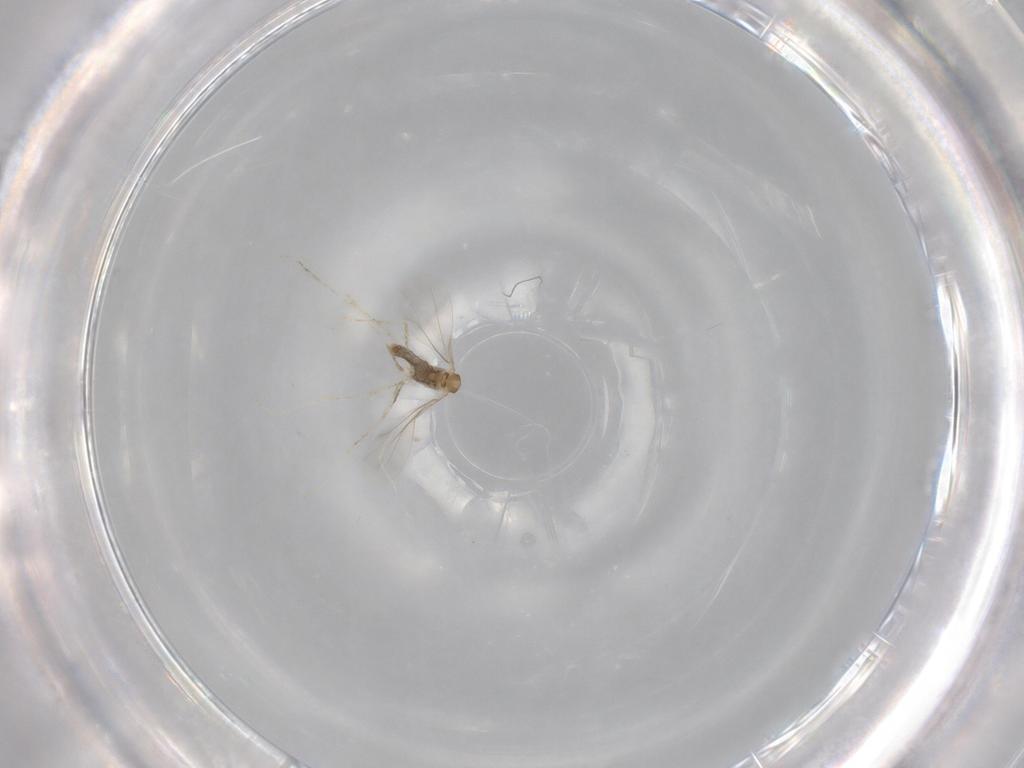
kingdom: Animalia
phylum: Arthropoda
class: Insecta
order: Diptera
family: Cecidomyiidae
